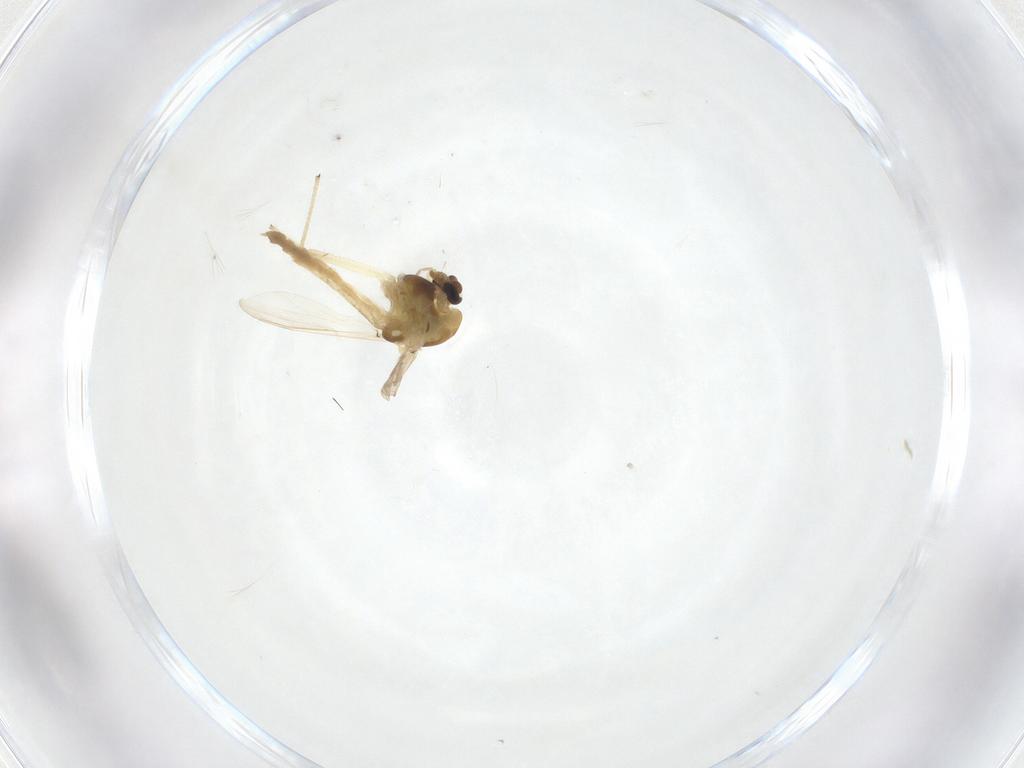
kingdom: Animalia
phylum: Arthropoda
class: Insecta
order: Diptera
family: Chironomidae
